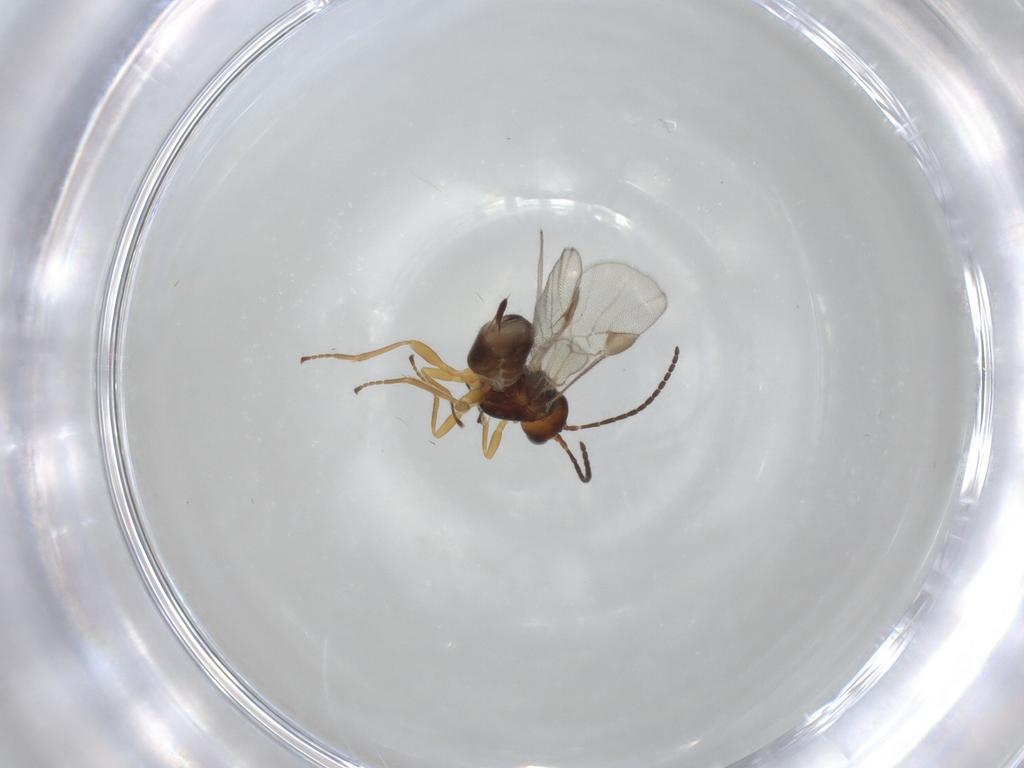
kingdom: Animalia
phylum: Arthropoda
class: Insecta
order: Hymenoptera
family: Braconidae
